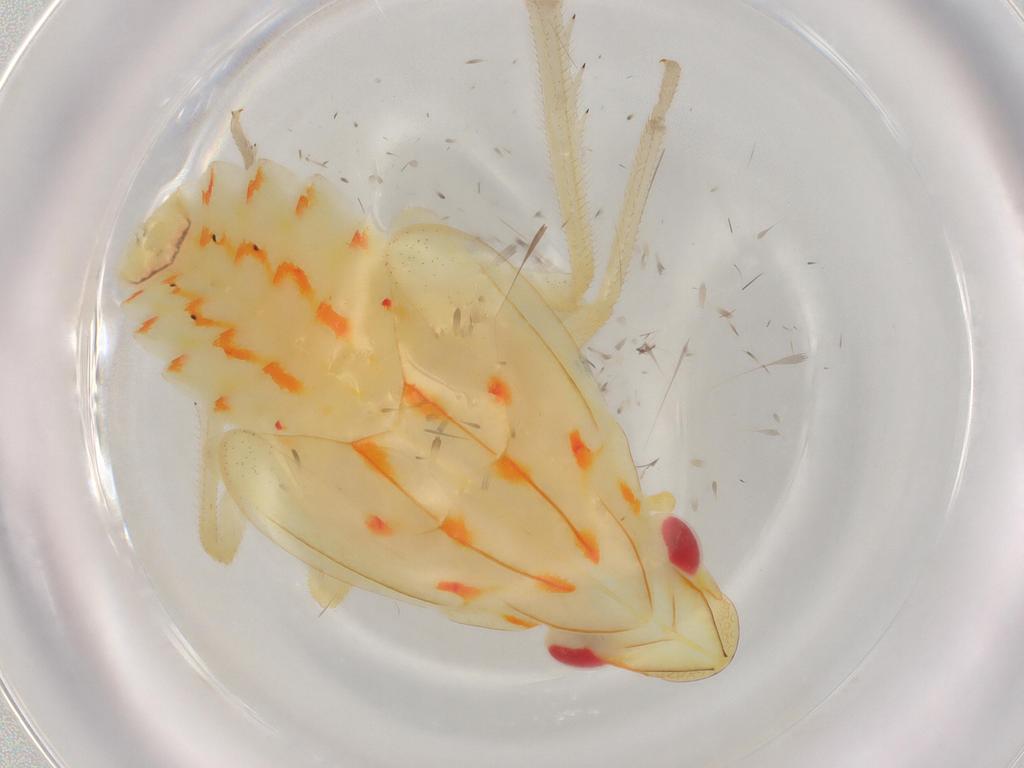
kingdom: Animalia
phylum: Arthropoda
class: Insecta
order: Hemiptera
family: Tropiduchidae
